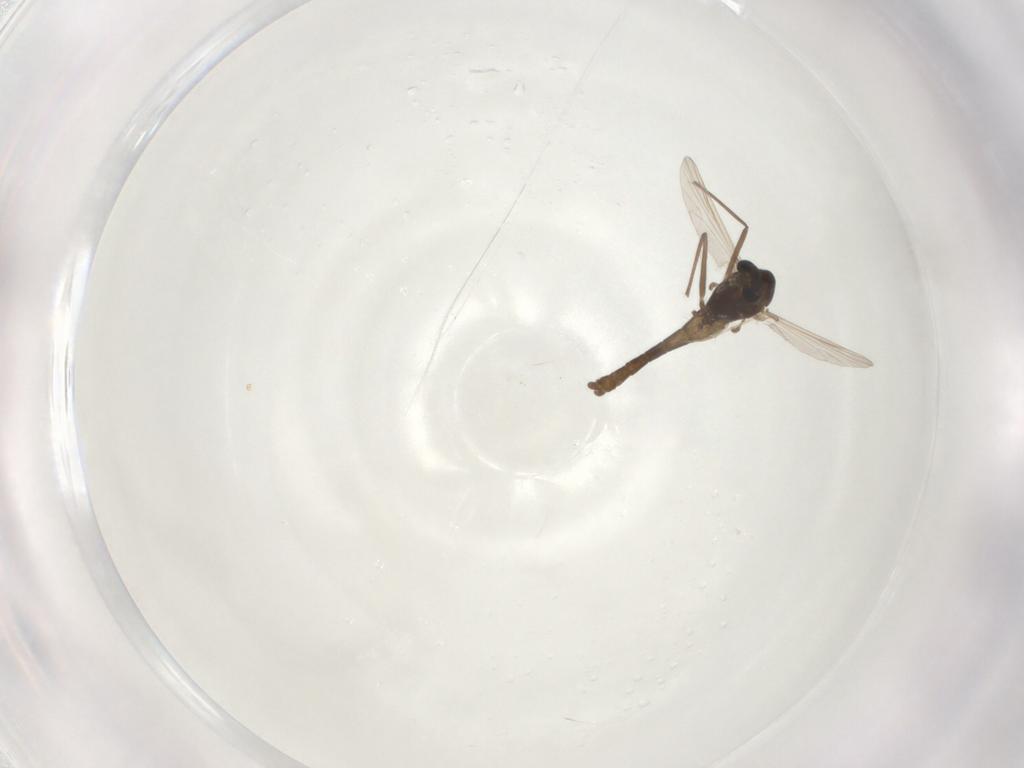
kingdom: Animalia
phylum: Arthropoda
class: Insecta
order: Diptera
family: Chironomidae
